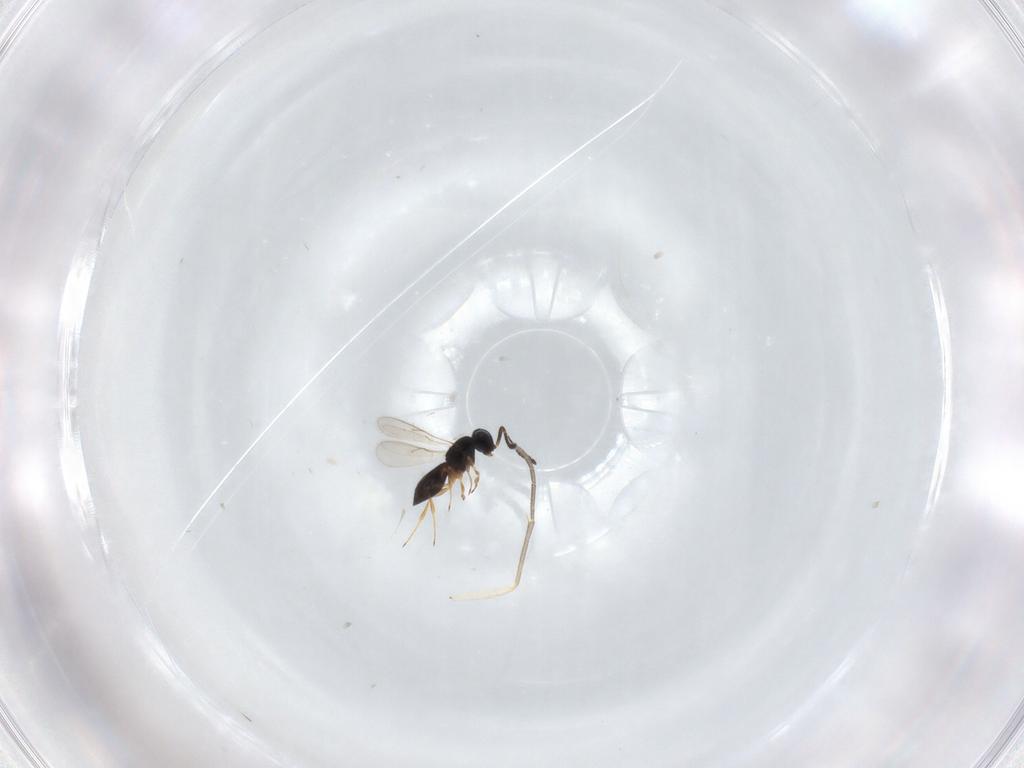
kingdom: Animalia
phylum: Arthropoda
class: Insecta
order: Hymenoptera
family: Scelionidae
